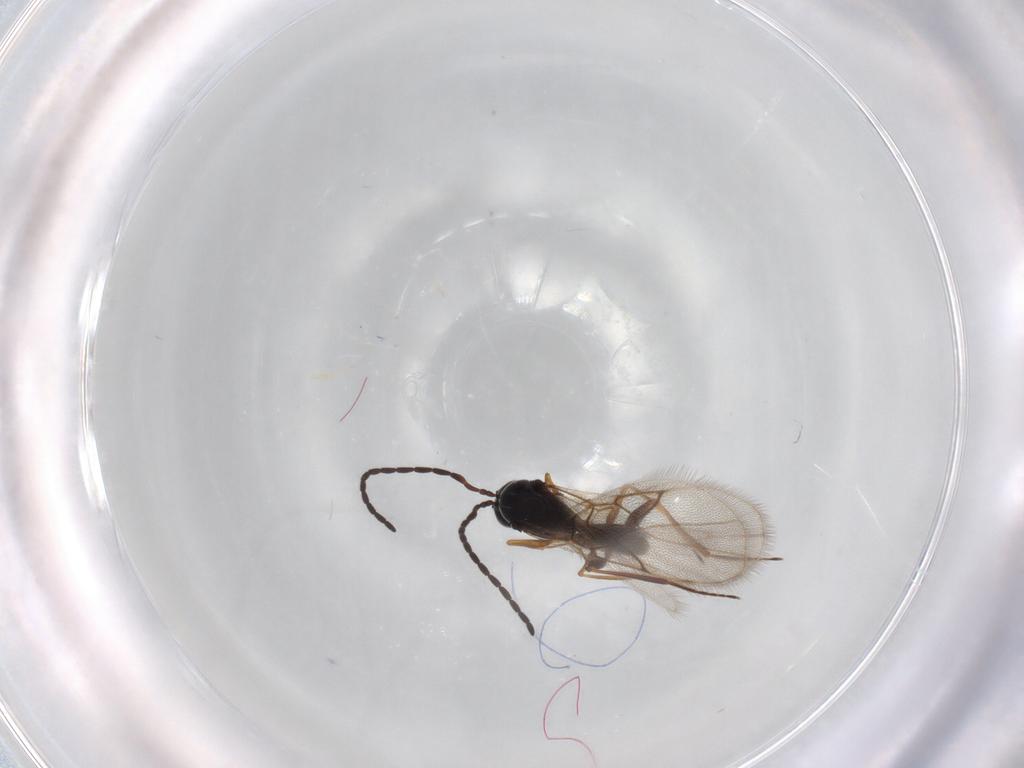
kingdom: Animalia
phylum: Arthropoda
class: Insecta
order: Hymenoptera
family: Figitidae
